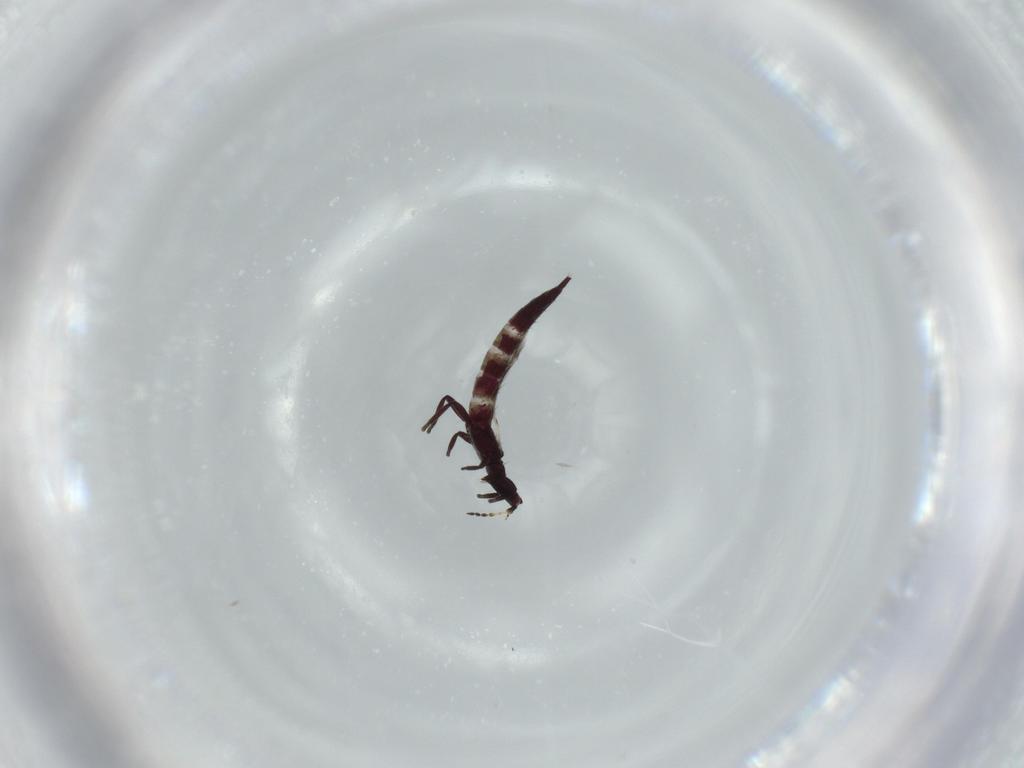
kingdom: Animalia
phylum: Arthropoda
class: Insecta
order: Thysanoptera
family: Phlaeothripidae
